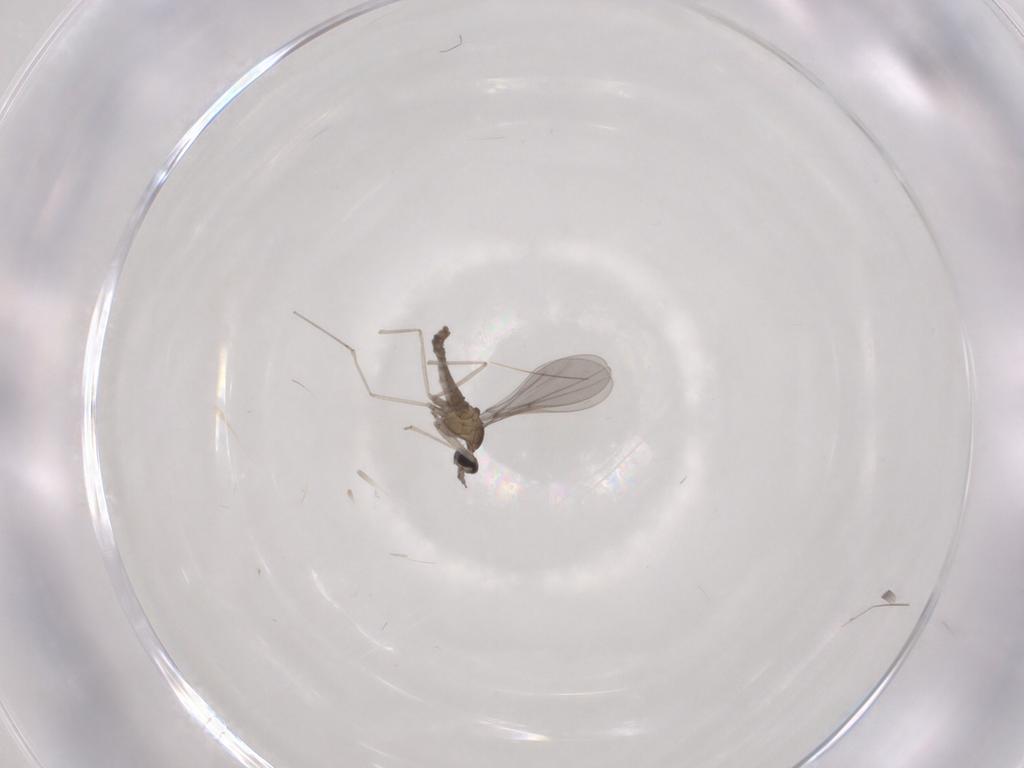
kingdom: Animalia
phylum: Arthropoda
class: Insecta
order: Diptera
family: Cecidomyiidae
